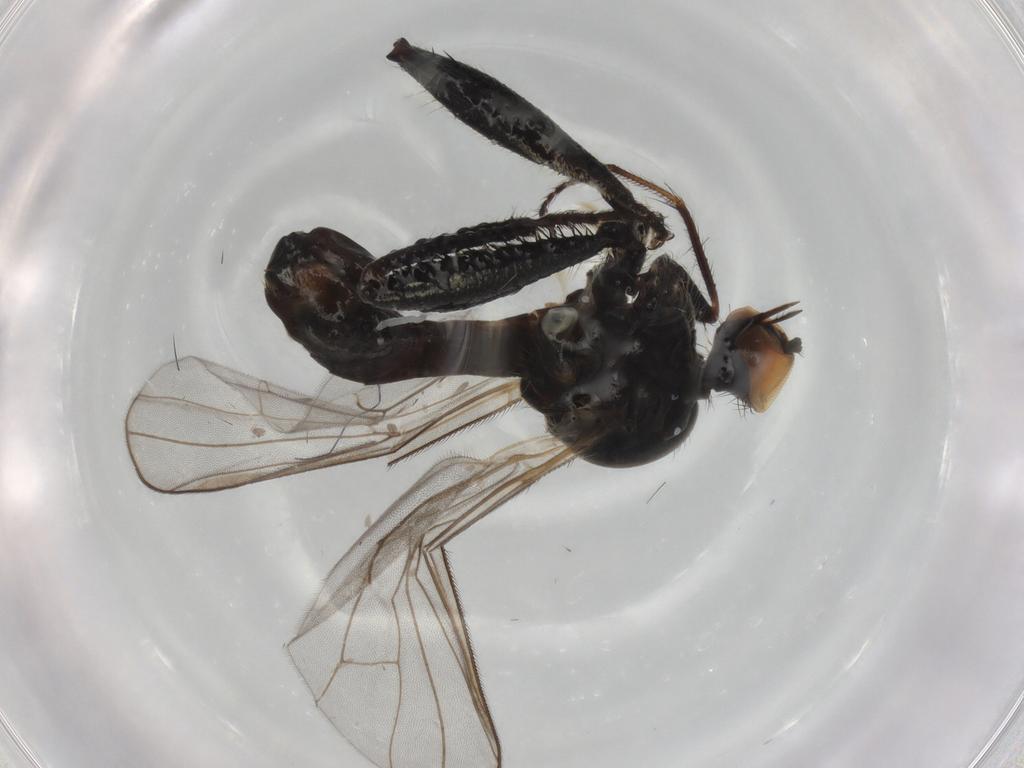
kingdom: Animalia
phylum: Arthropoda
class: Insecta
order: Diptera
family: Hybotidae
